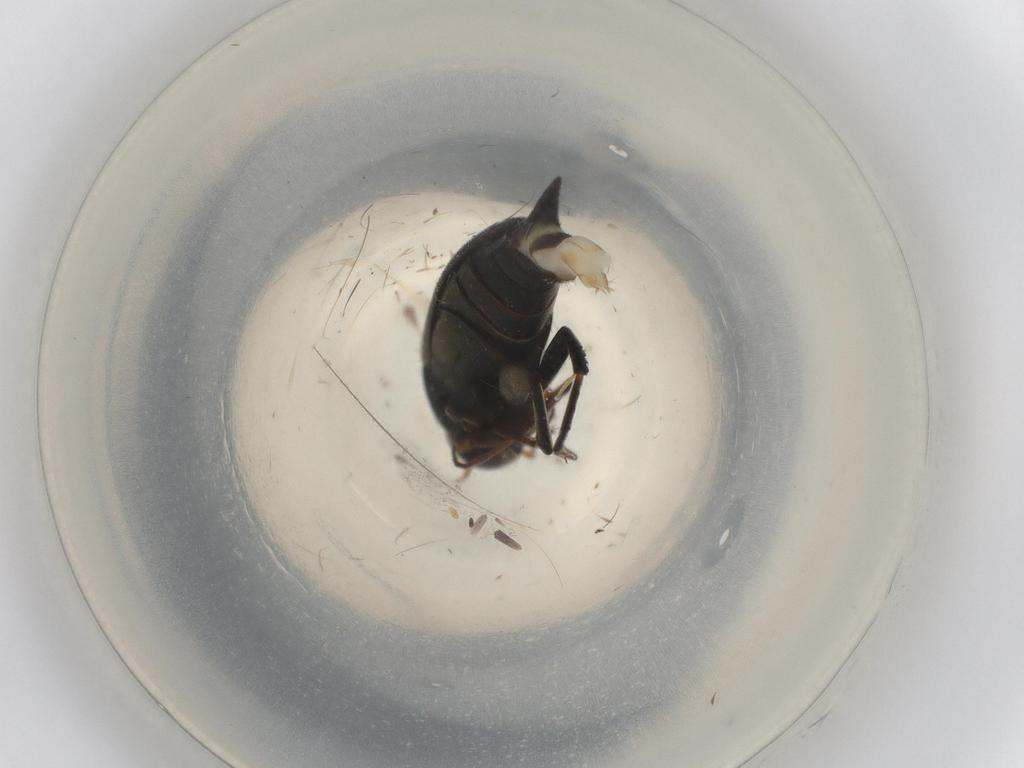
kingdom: Animalia
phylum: Arthropoda
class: Insecta
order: Coleoptera
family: Mordellidae
